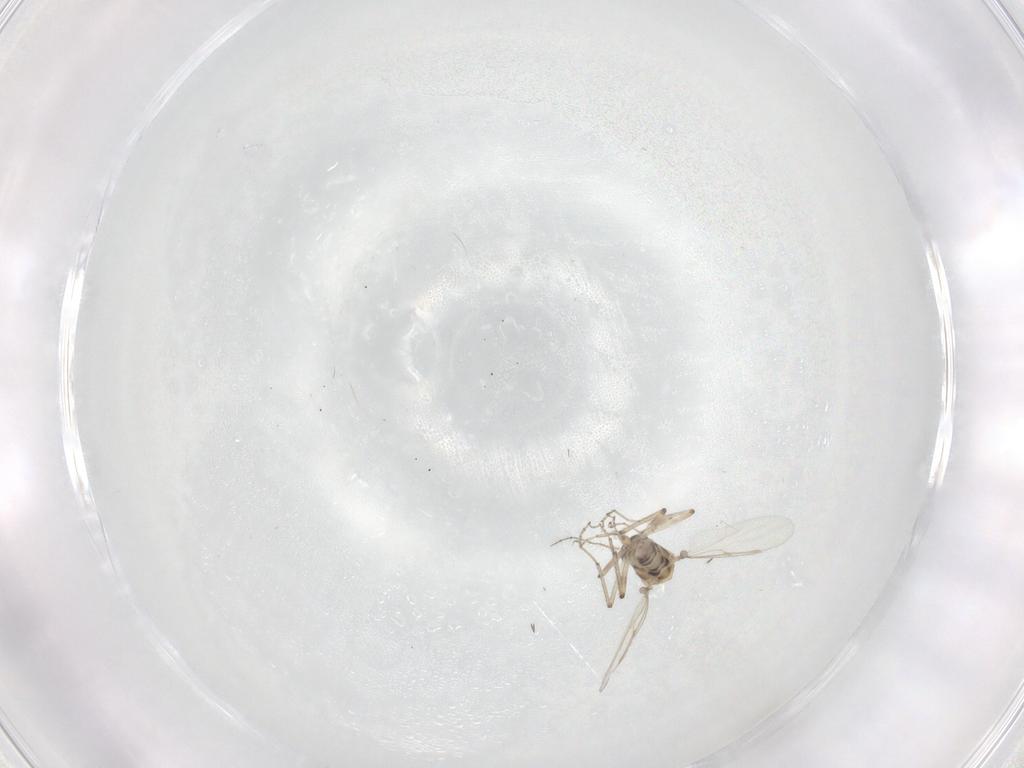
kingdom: Animalia
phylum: Arthropoda
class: Insecta
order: Diptera
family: Ceratopogonidae
